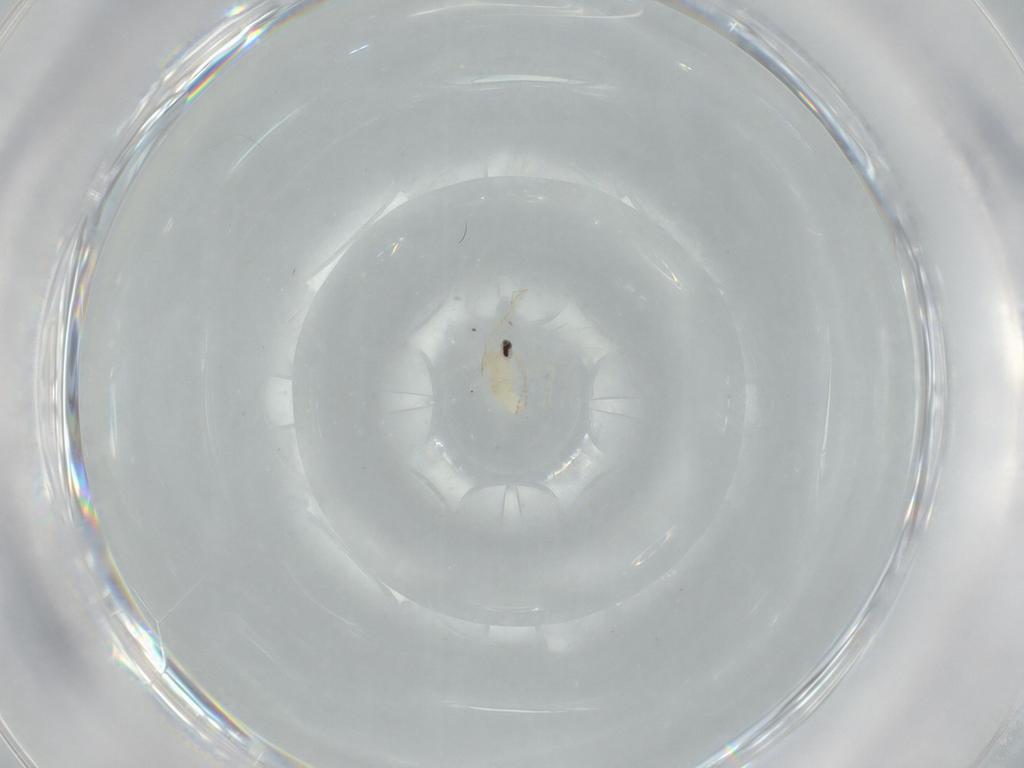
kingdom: Animalia
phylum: Arthropoda
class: Insecta
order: Diptera
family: Cecidomyiidae
